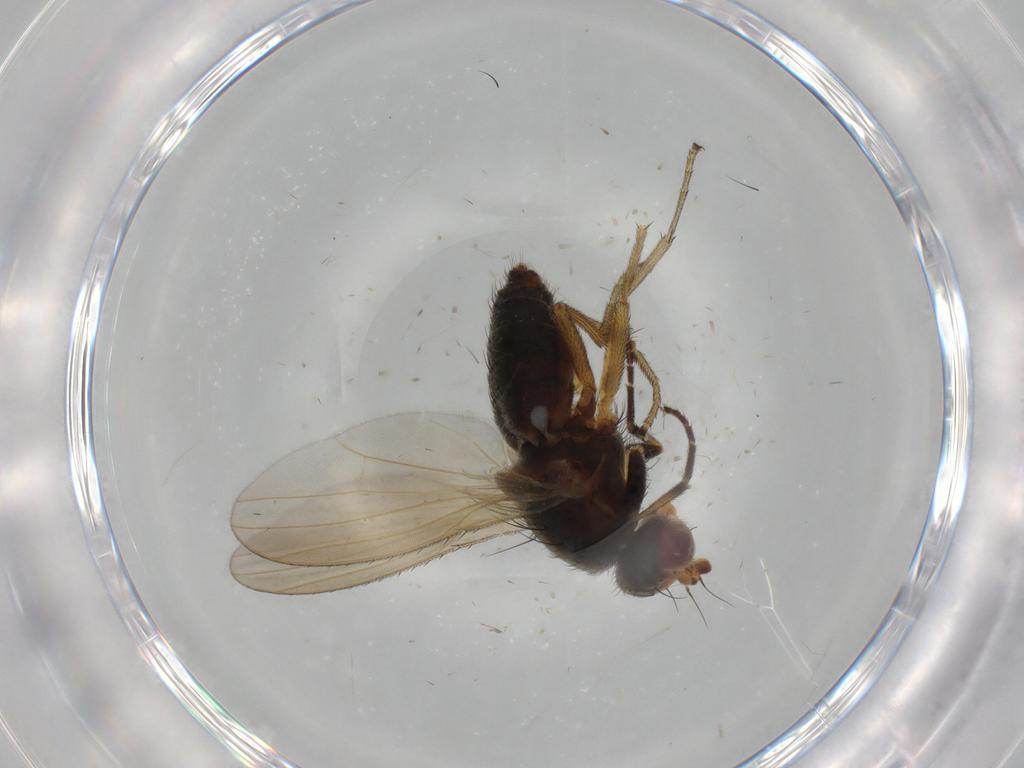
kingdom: Animalia
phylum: Arthropoda
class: Insecta
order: Diptera
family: Ulidiidae
